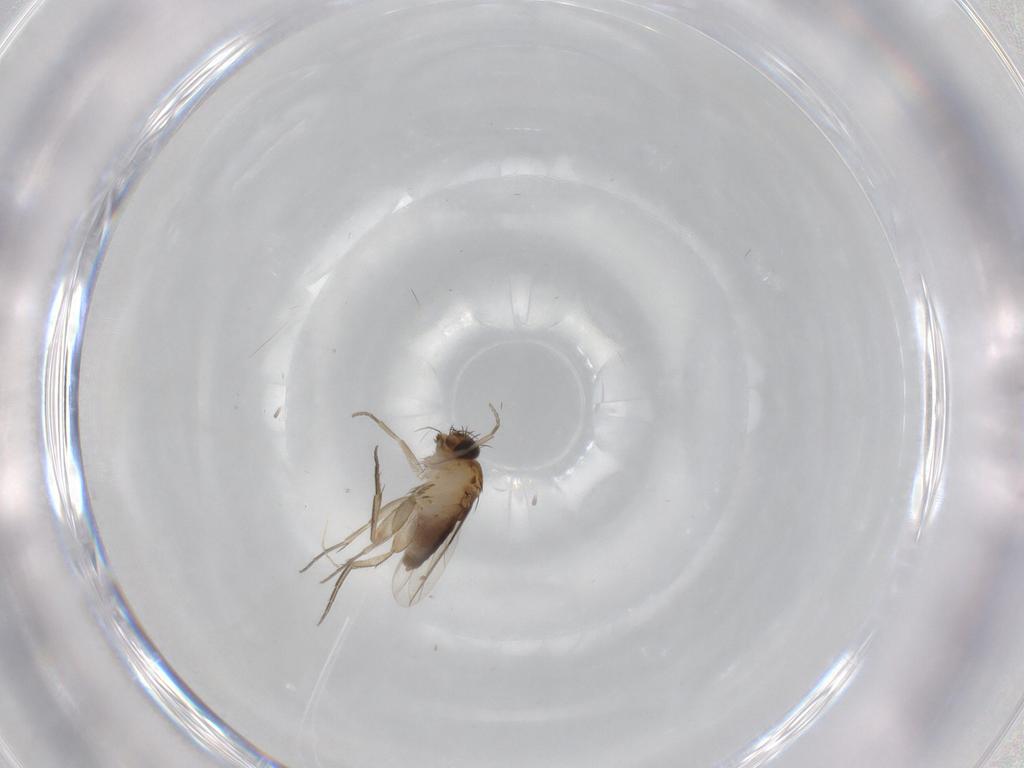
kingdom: Animalia
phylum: Arthropoda
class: Insecta
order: Diptera
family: Phoridae
